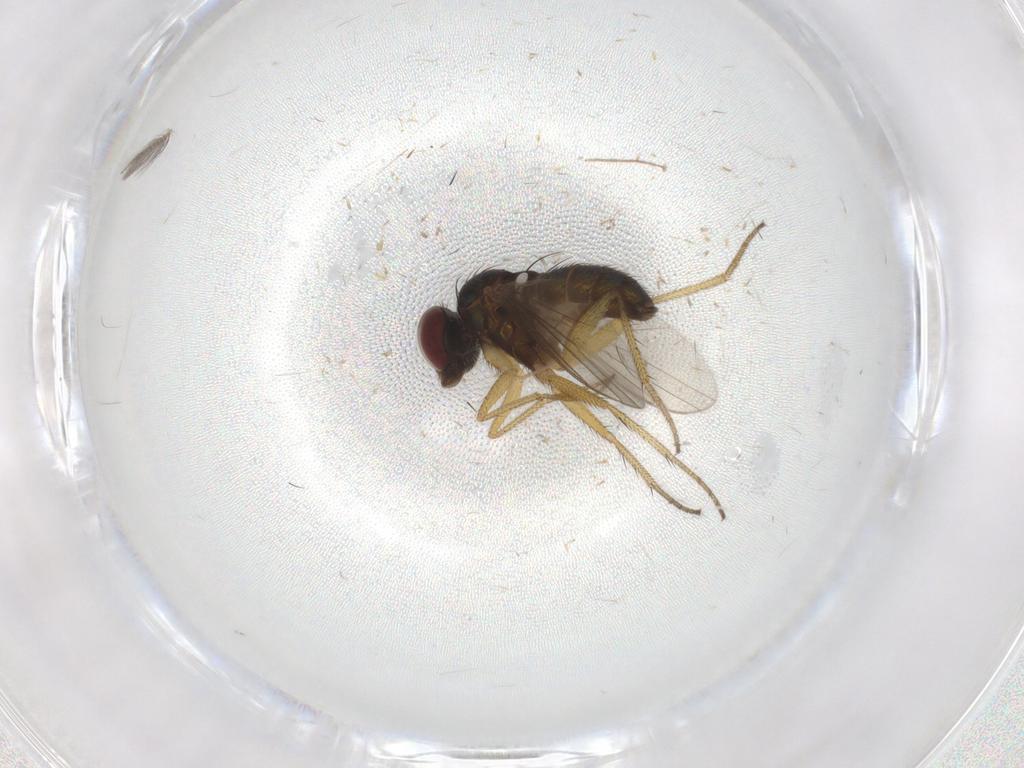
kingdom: Animalia
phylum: Arthropoda
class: Insecta
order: Diptera
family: Chironomidae
